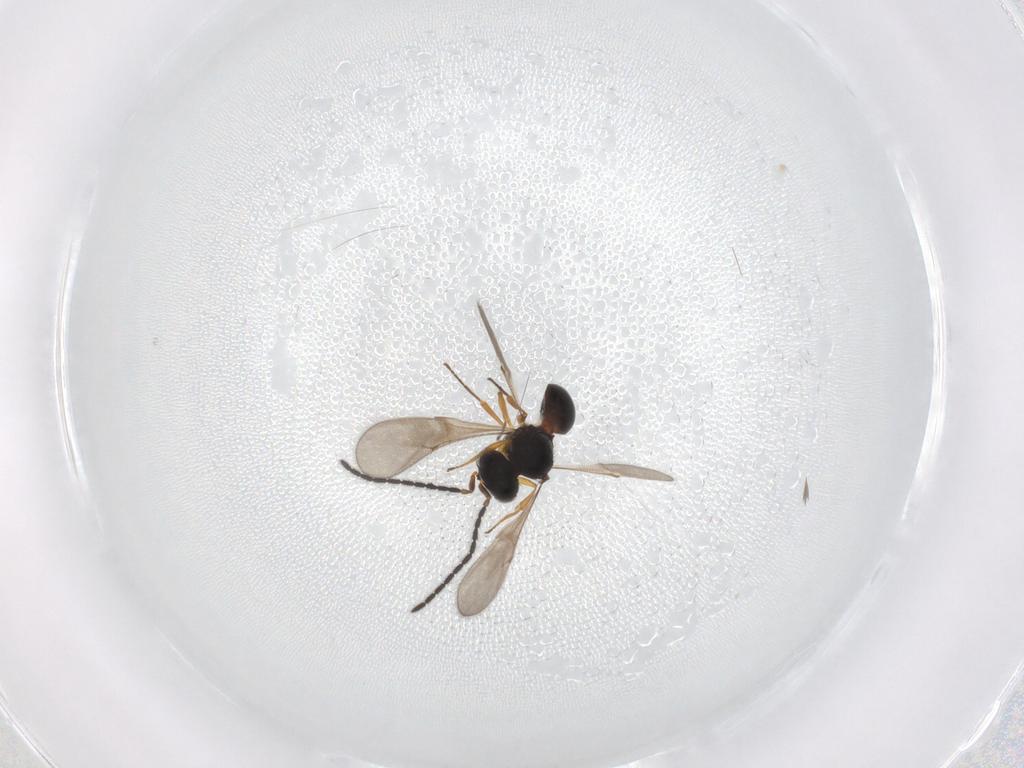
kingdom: Animalia
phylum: Arthropoda
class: Insecta
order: Hymenoptera
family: Scelionidae
